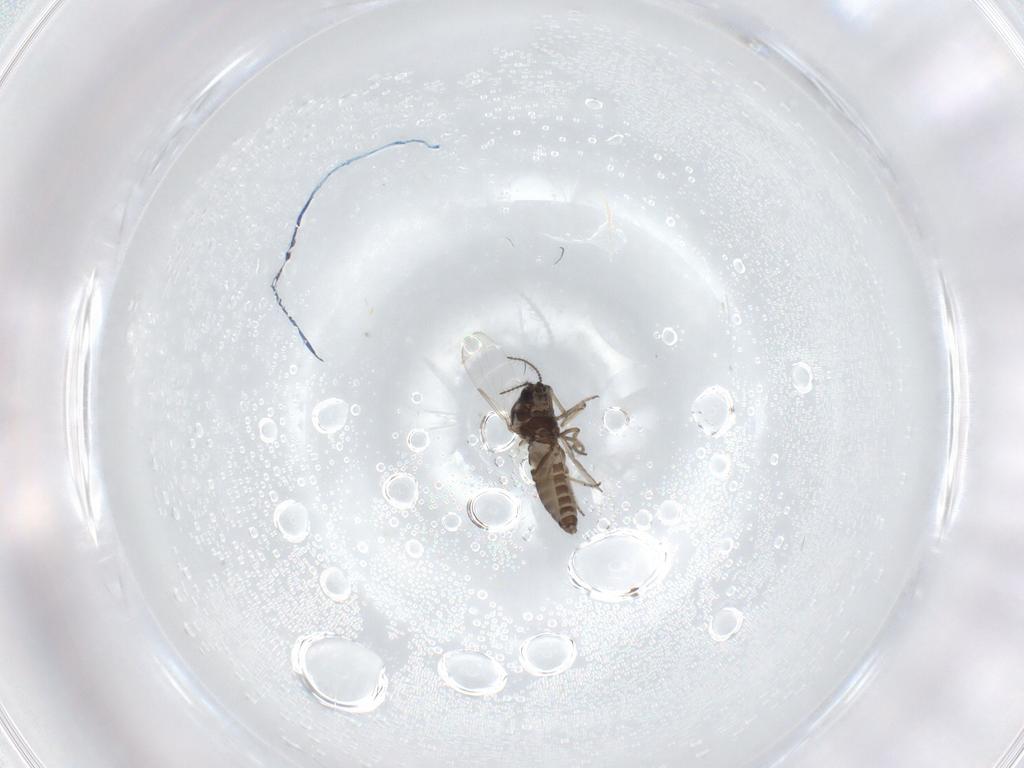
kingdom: Animalia
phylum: Arthropoda
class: Insecta
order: Diptera
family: Ceratopogonidae
